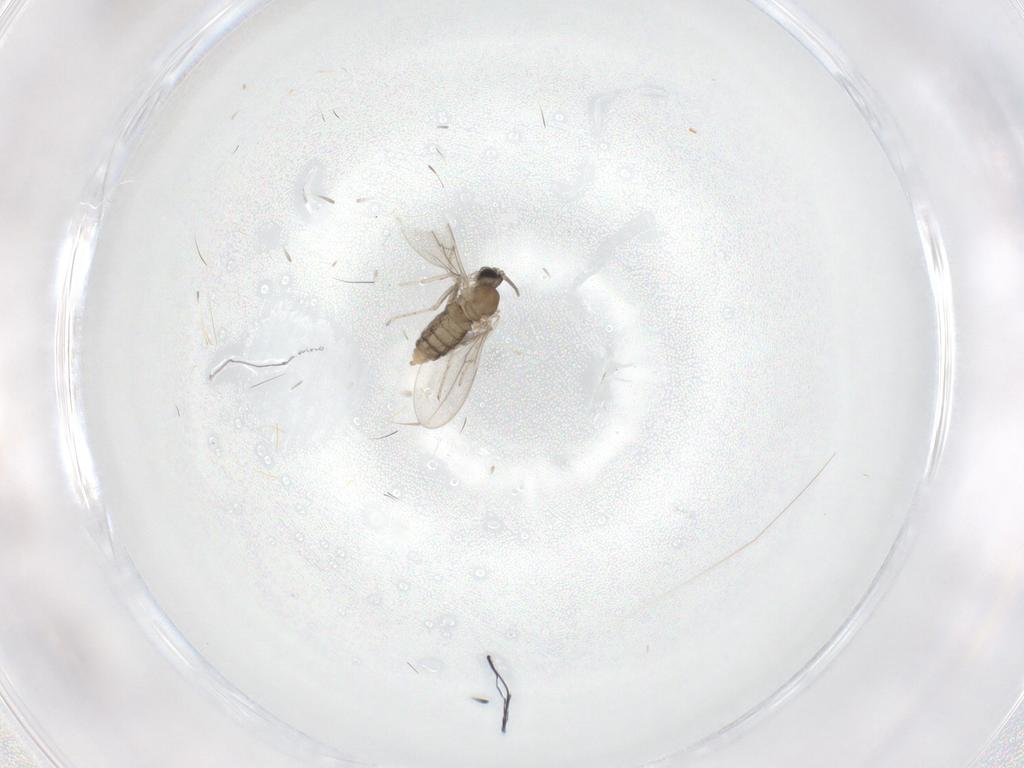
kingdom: Animalia
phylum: Arthropoda
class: Insecta
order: Diptera
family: Cecidomyiidae
